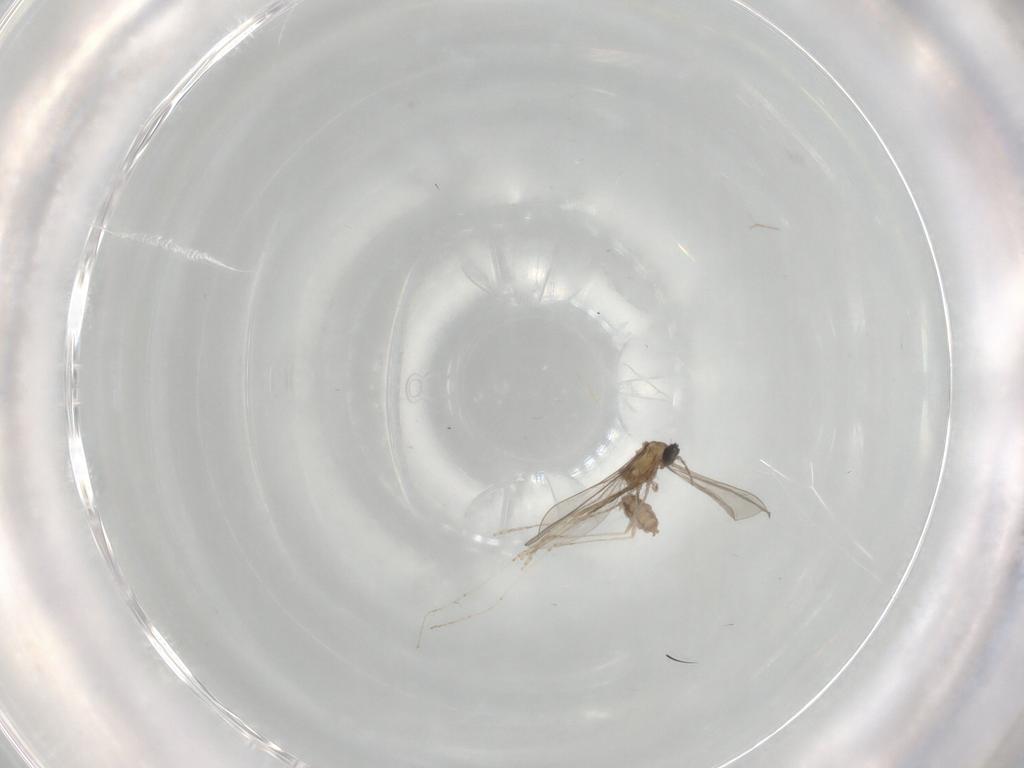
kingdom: Animalia
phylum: Arthropoda
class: Insecta
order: Diptera
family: Cecidomyiidae
